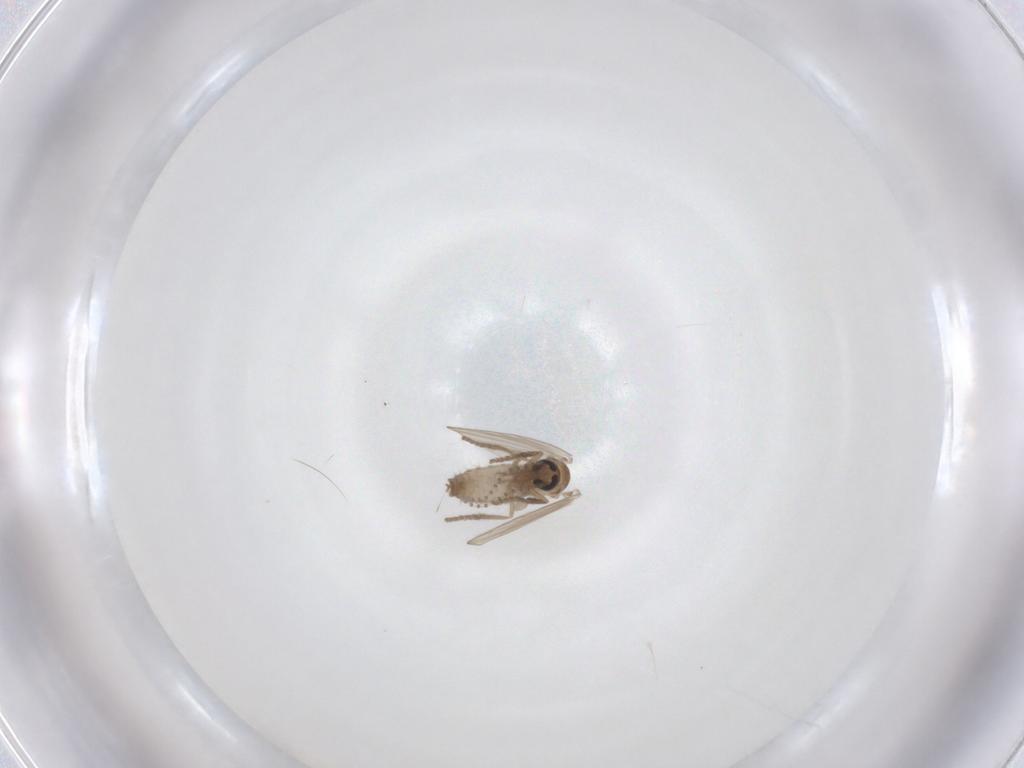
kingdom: Animalia
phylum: Arthropoda
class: Insecta
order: Diptera
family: Psychodidae
